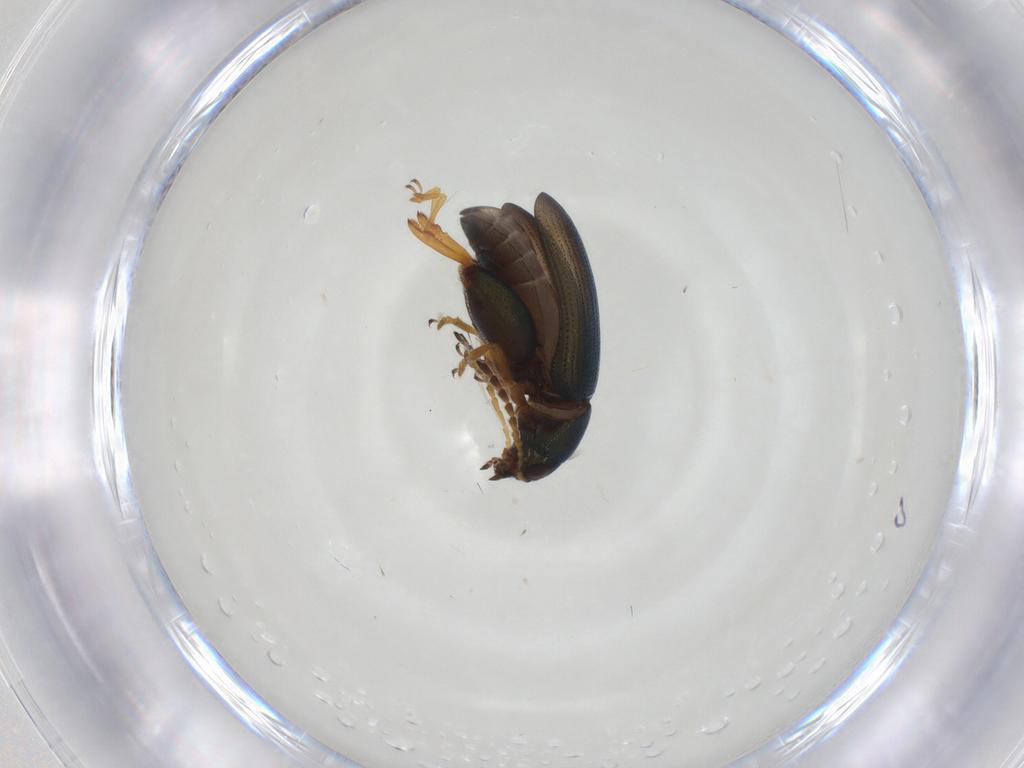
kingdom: Animalia
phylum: Arthropoda
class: Insecta
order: Coleoptera
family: Chrysomelidae
